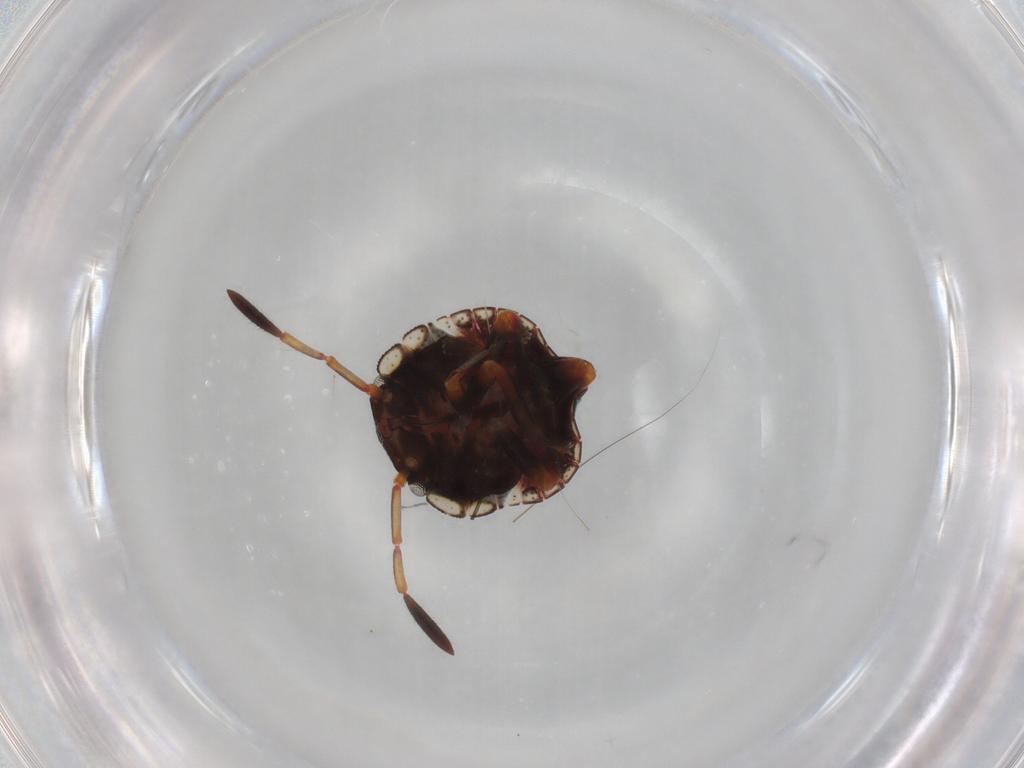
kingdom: Animalia
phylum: Arthropoda
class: Insecta
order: Hemiptera
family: Pentatomidae
